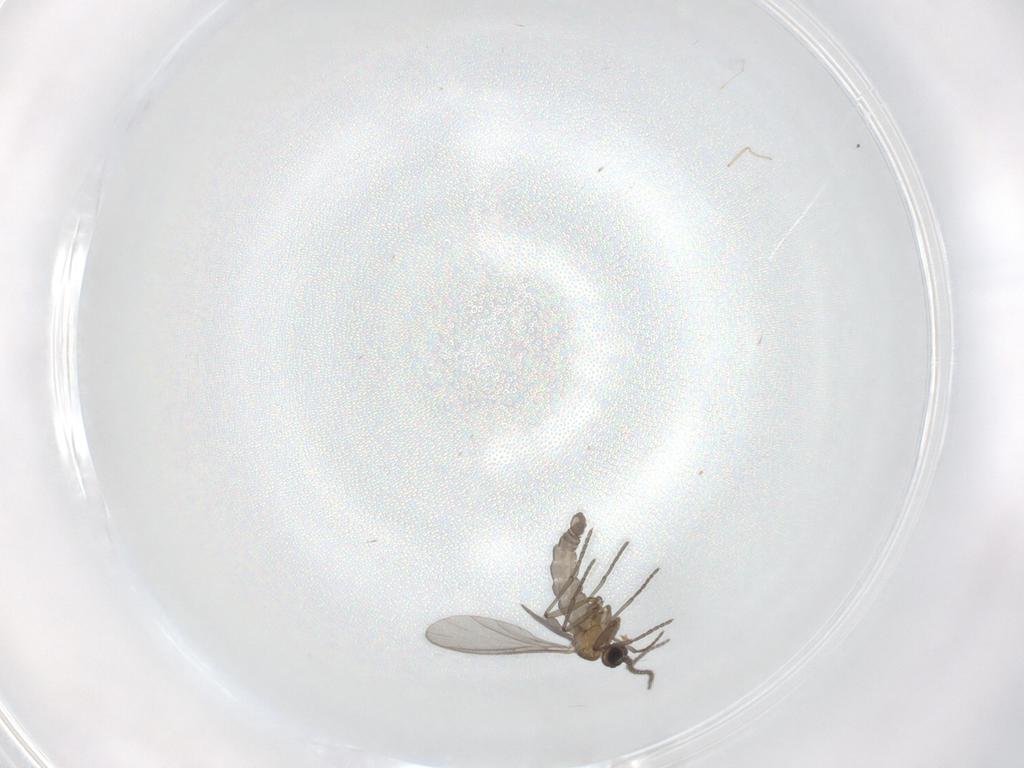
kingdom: Animalia
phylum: Arthropoda
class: Insecta
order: Diptera
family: Sciaridae
